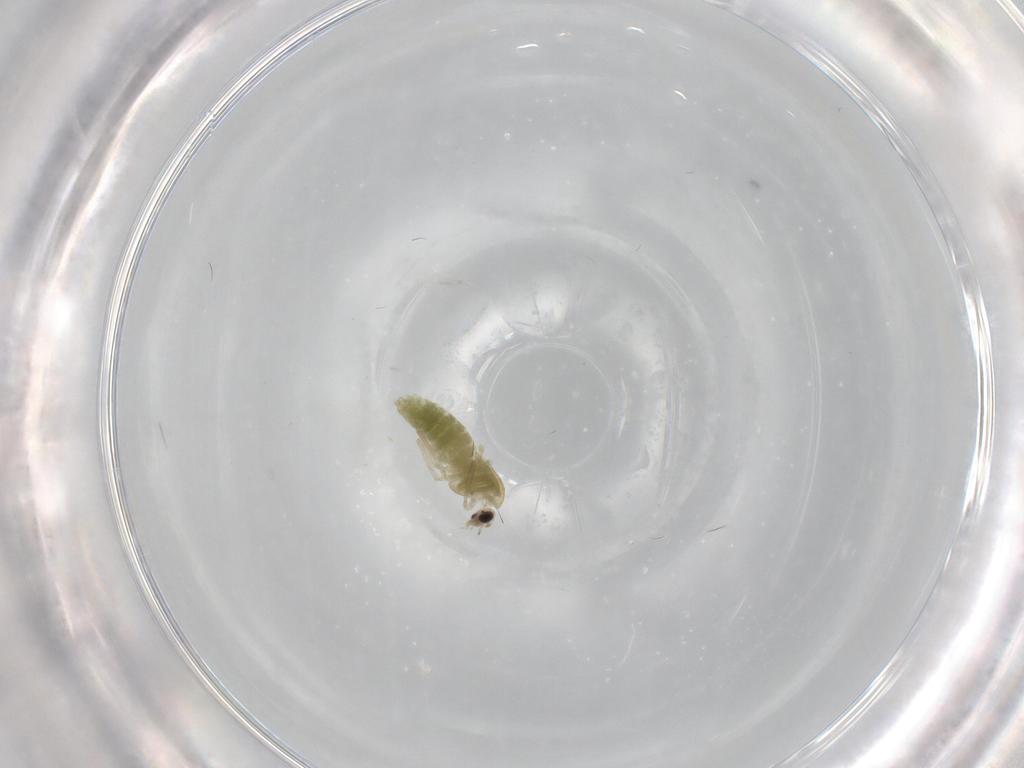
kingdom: Animalia
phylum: Arthropoda
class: Insecta
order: Diptera
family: Chironomidae
